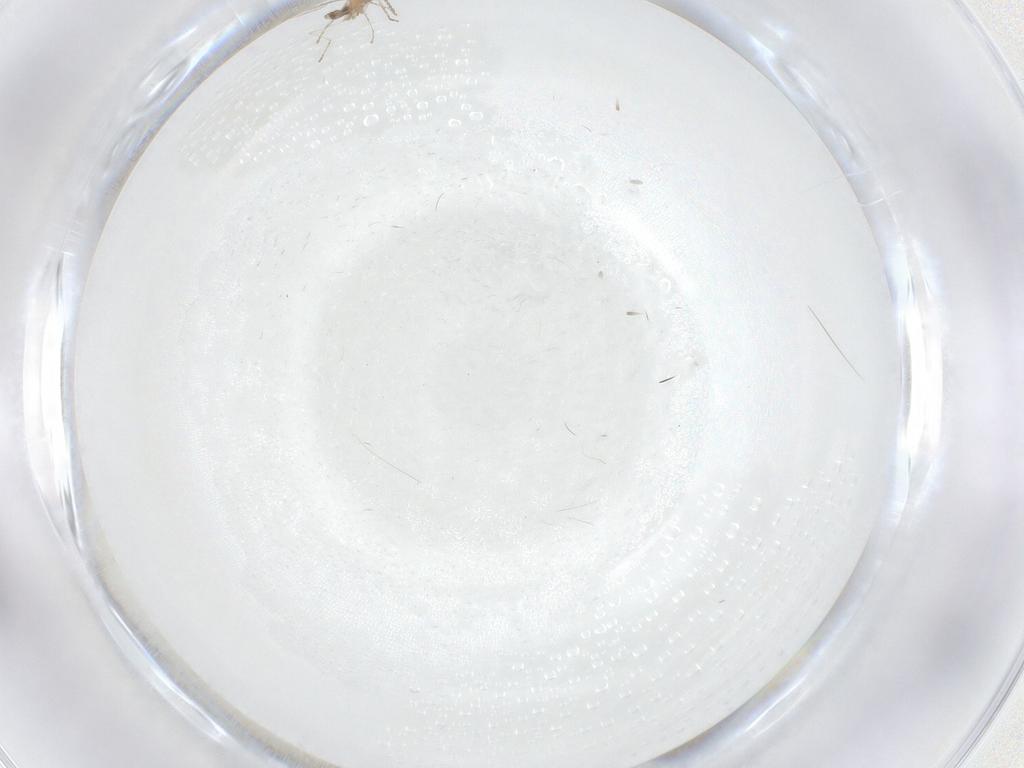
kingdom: Animalia
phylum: Arthropoda
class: Insecta
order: Diptera
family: Cecidomyiidae
